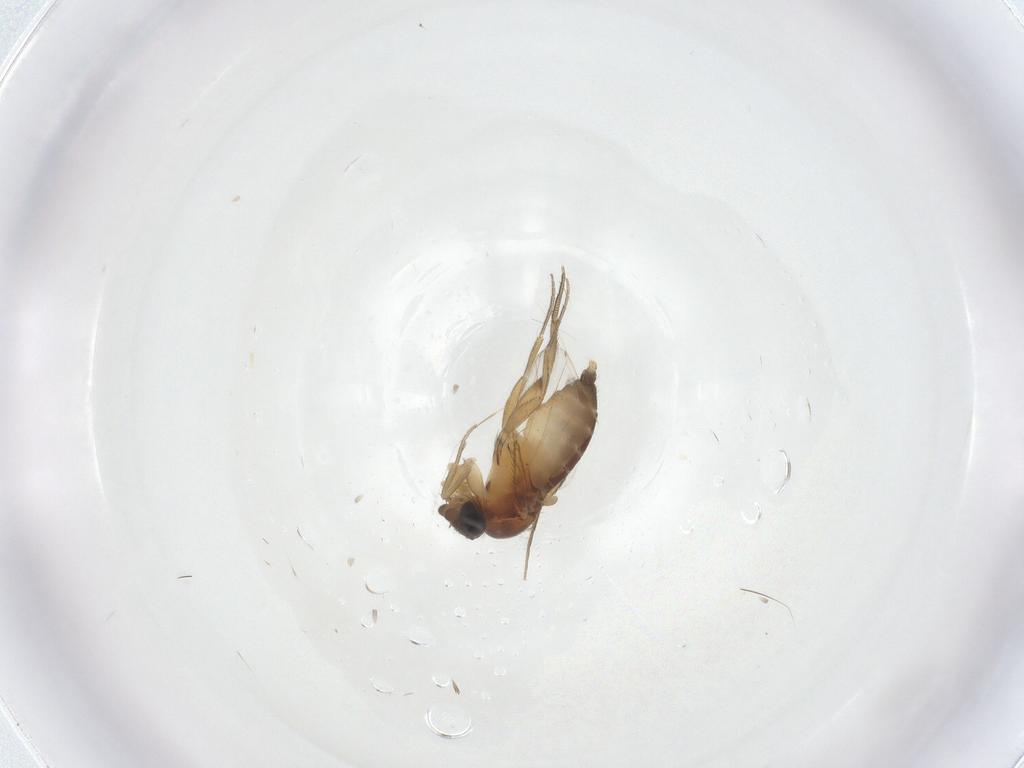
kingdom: Animalia
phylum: Arthropoda
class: Insecta
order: Diptera
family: Phoridae
